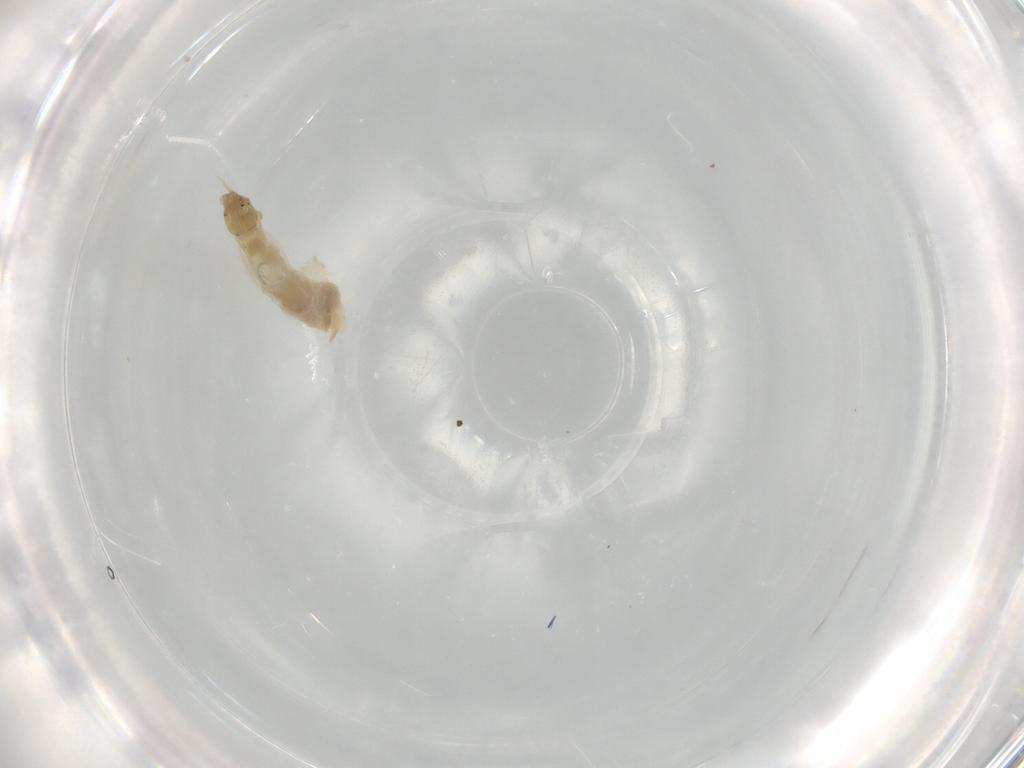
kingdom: Animalia
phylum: Arthropoda
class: Insecta
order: Diptera
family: Chironomidae
